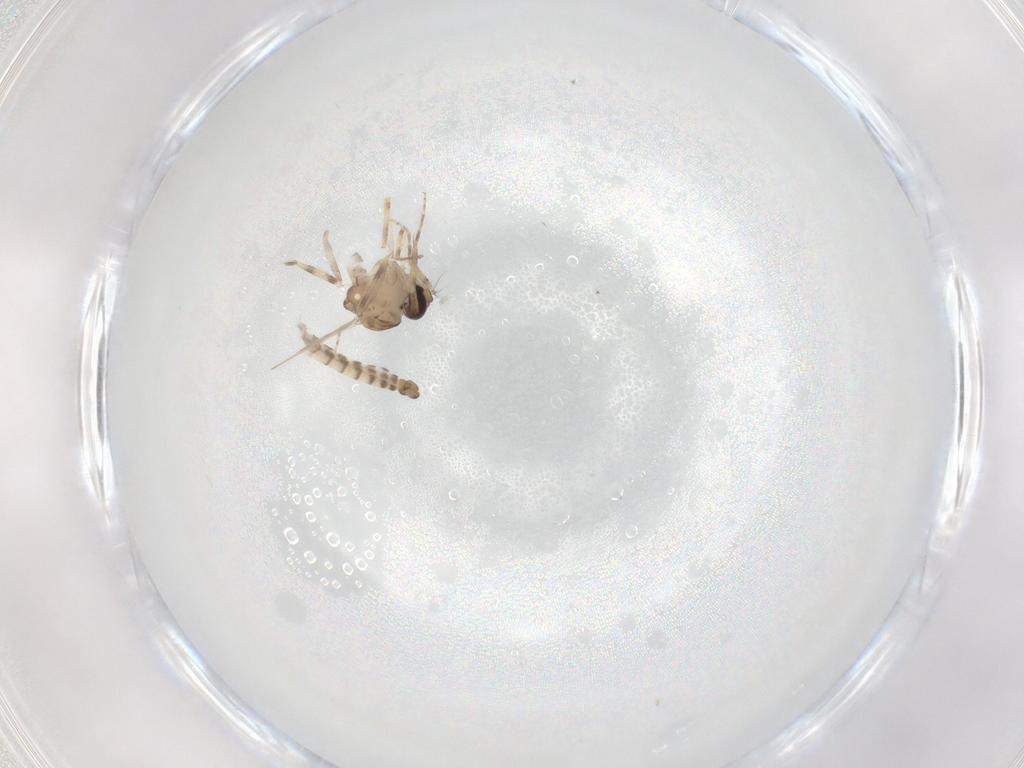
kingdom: Animalia
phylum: Arthropoda
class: Insecta
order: Diptera
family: Ceratopogonidae
